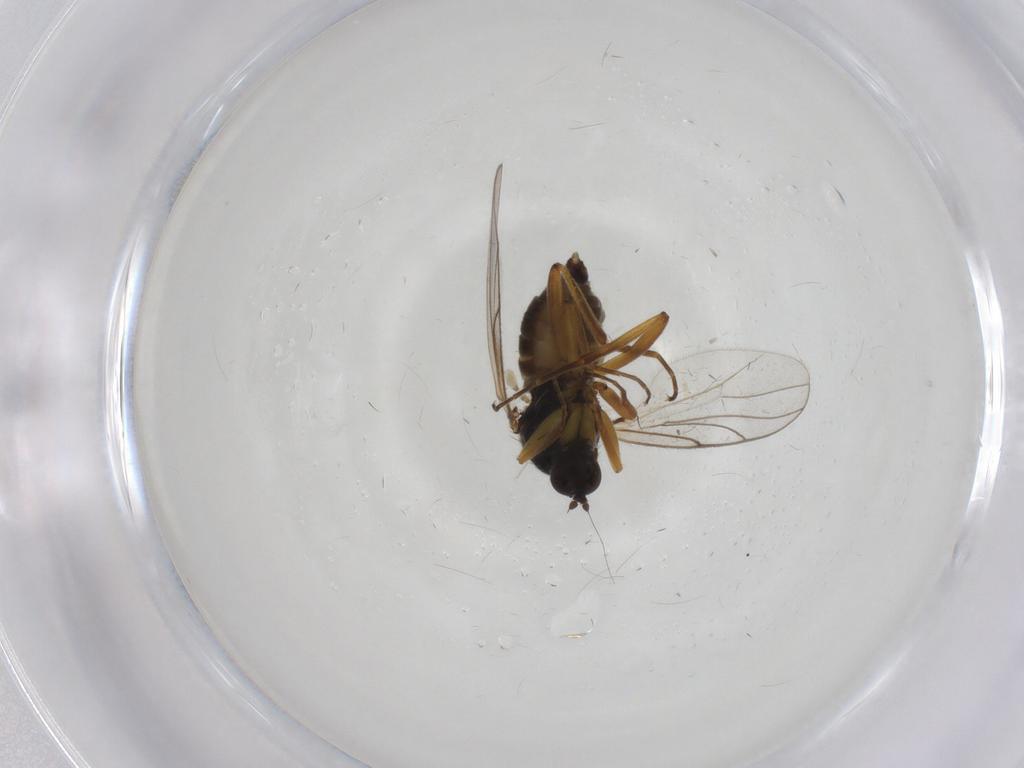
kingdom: Animalia
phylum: Arthropoda
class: Insecta
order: Diptera
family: Hybotidae
